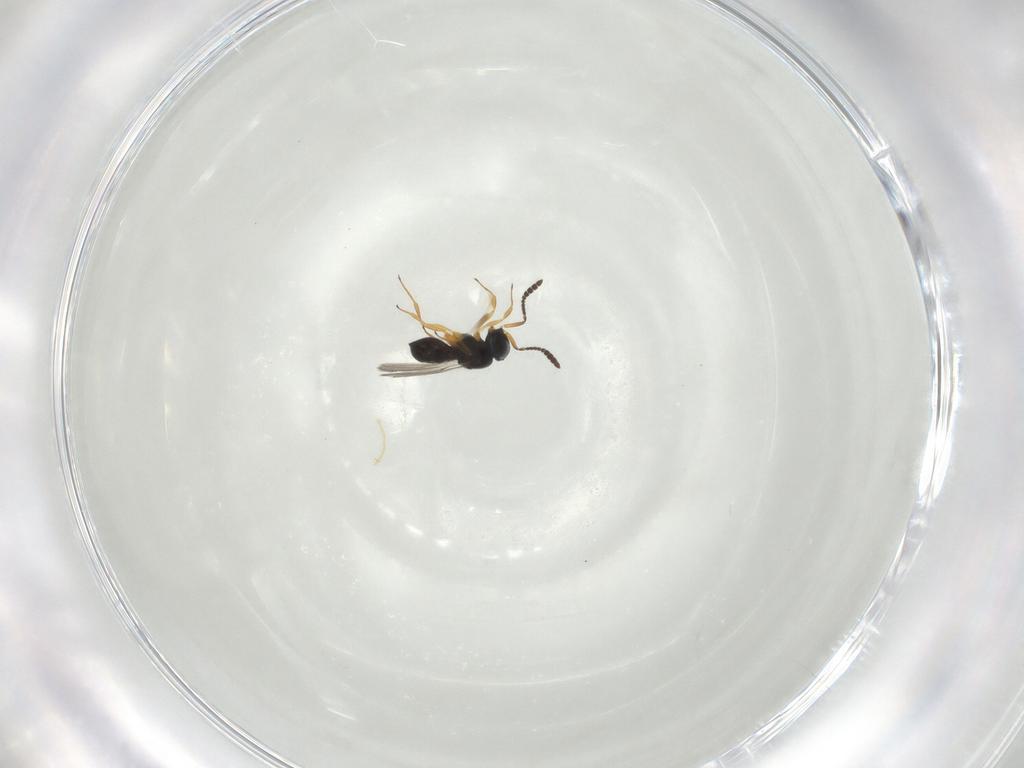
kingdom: Animalia
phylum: Arthropoda
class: Insecta
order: Hymenoptera
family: Scelionidae
